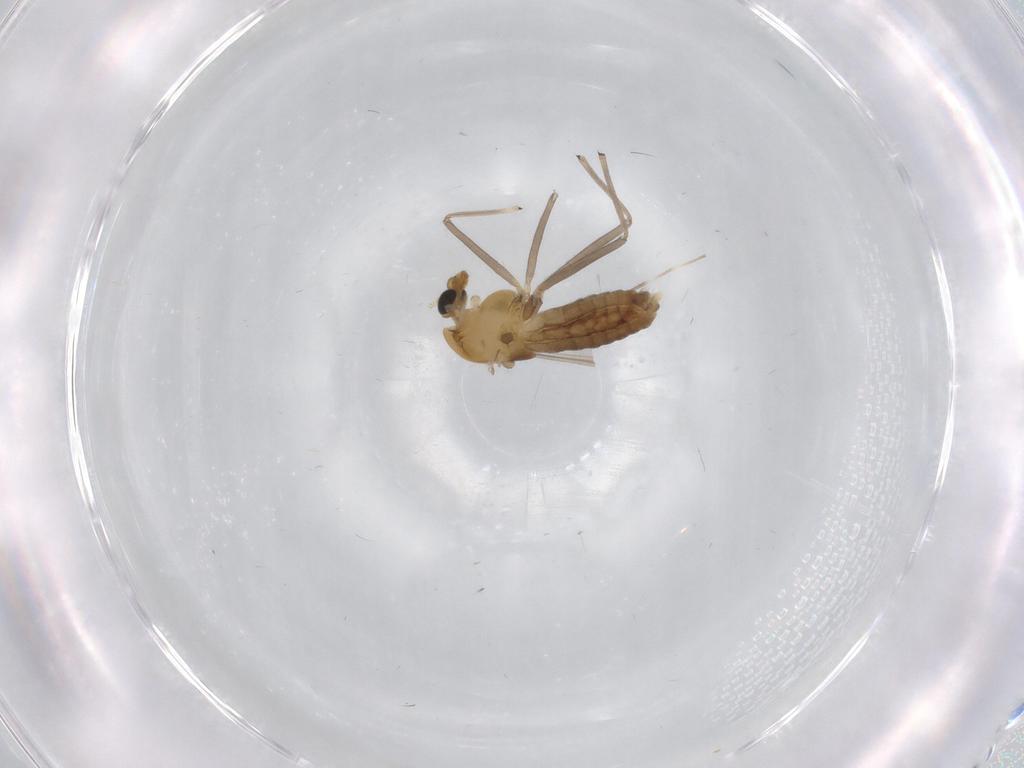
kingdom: Animalia
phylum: Arthropoda
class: Insecta
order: Diptera
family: Chironomidae
